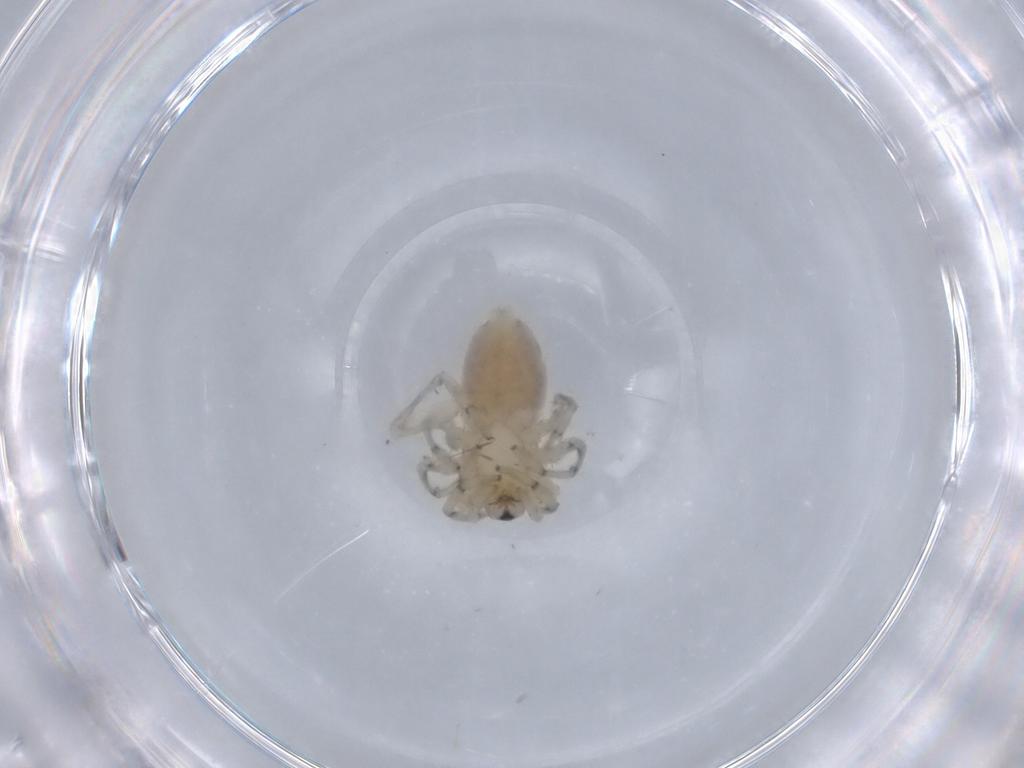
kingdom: Animalia
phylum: Arthropoda
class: Arachnida
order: Araneae
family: Gnaphosidae
